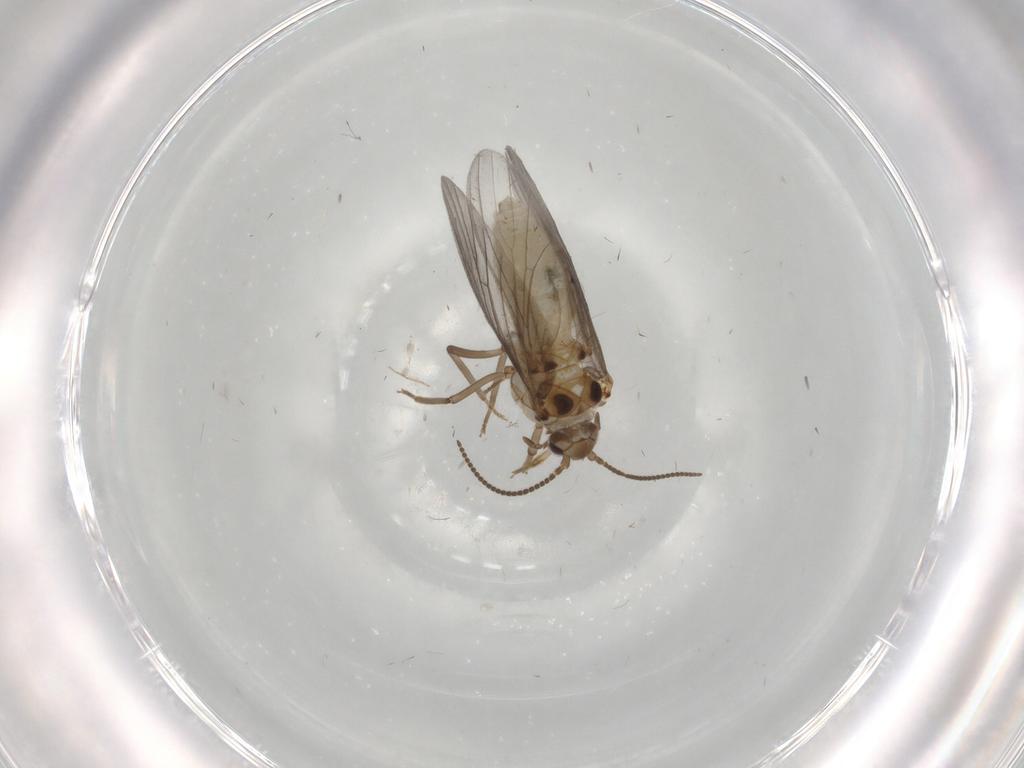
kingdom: Animalia
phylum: Arthropoda
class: Insecta
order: Neuroptera
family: Coniopterygidae
